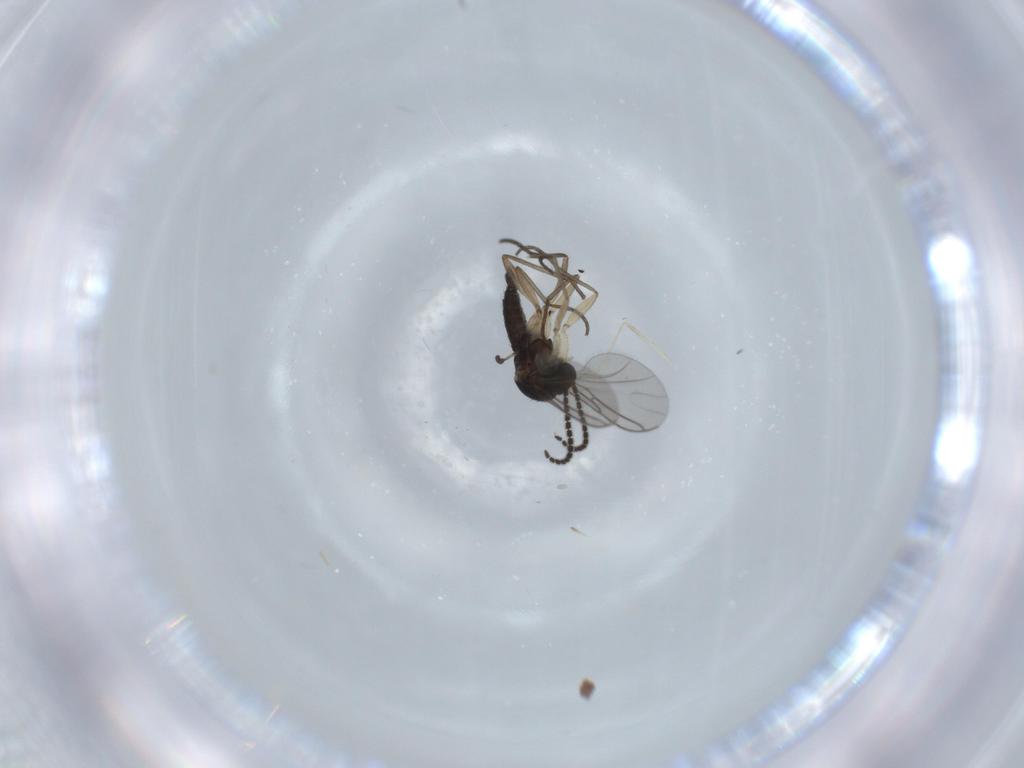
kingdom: Animalia
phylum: Arthropoda
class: Insecta
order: Diptera
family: Sciaridae
